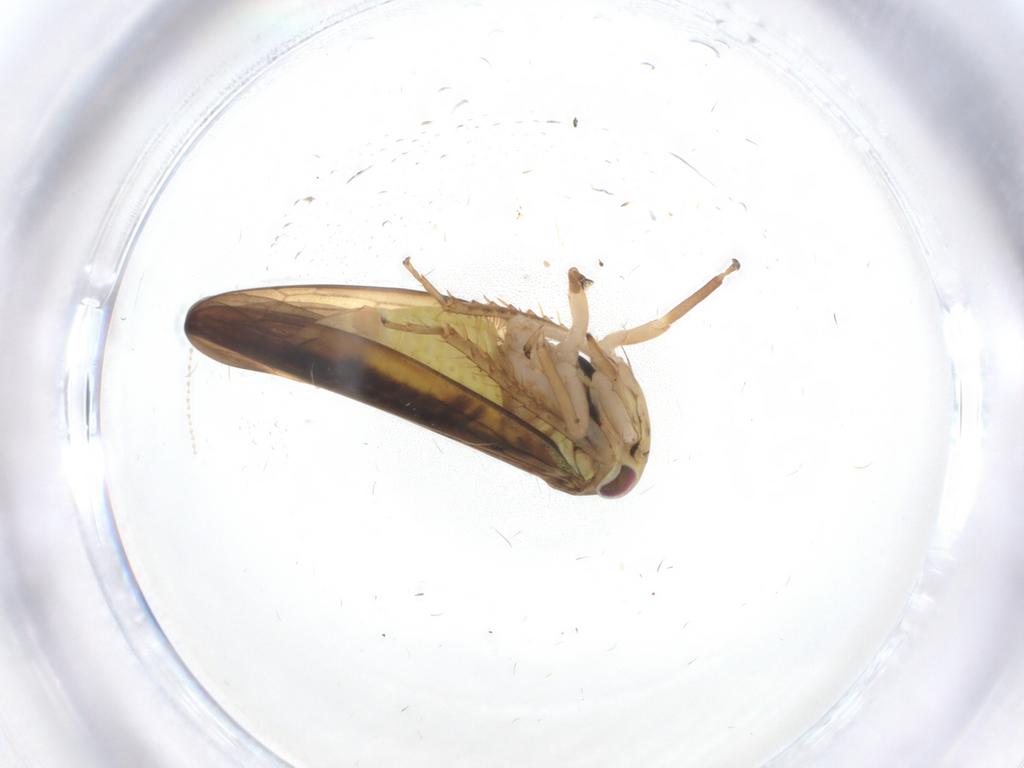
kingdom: Animalia
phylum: Arthropoda
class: Insecta
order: Hemiptera
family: Cicadellidae
